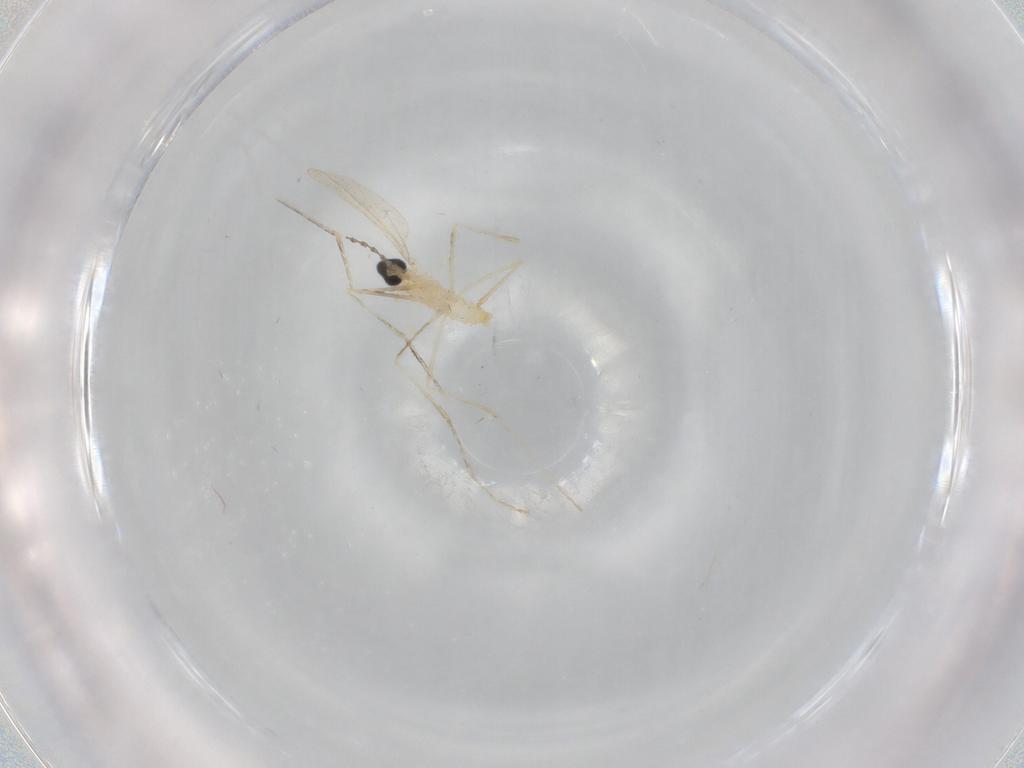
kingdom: Animalia
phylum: Arthropoda
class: Insecta
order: Diptera
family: Cecidomyiidae
